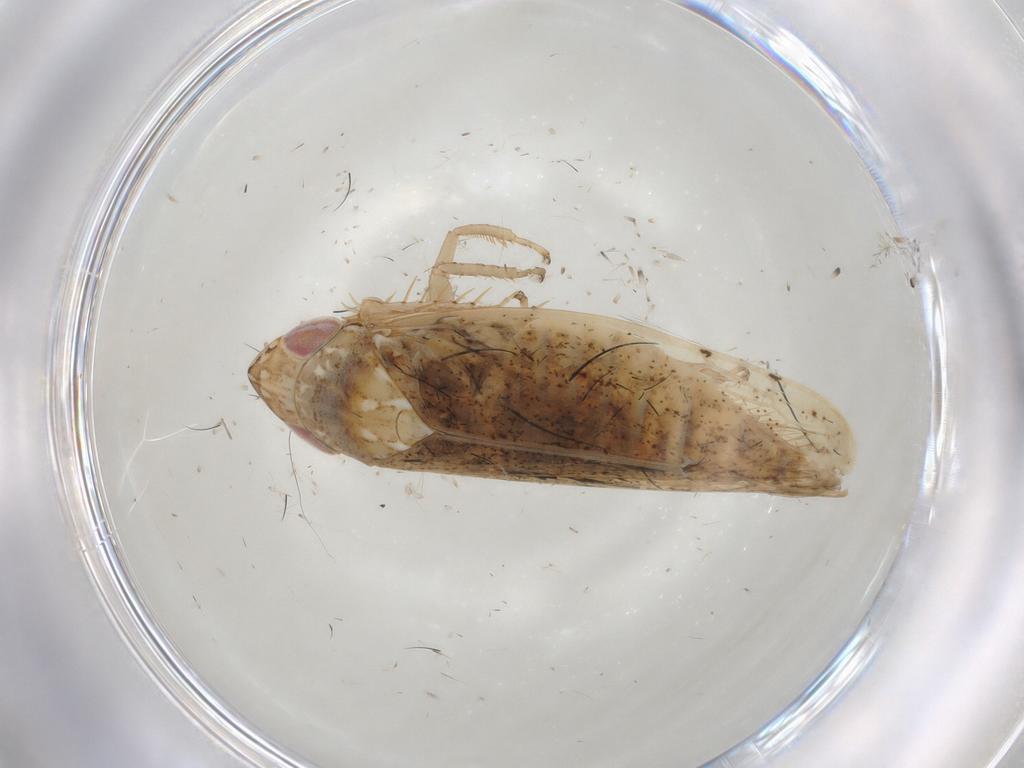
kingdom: Animalia
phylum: Arthropoda
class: Insecta
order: Hemiptera
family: Cicadellidae
